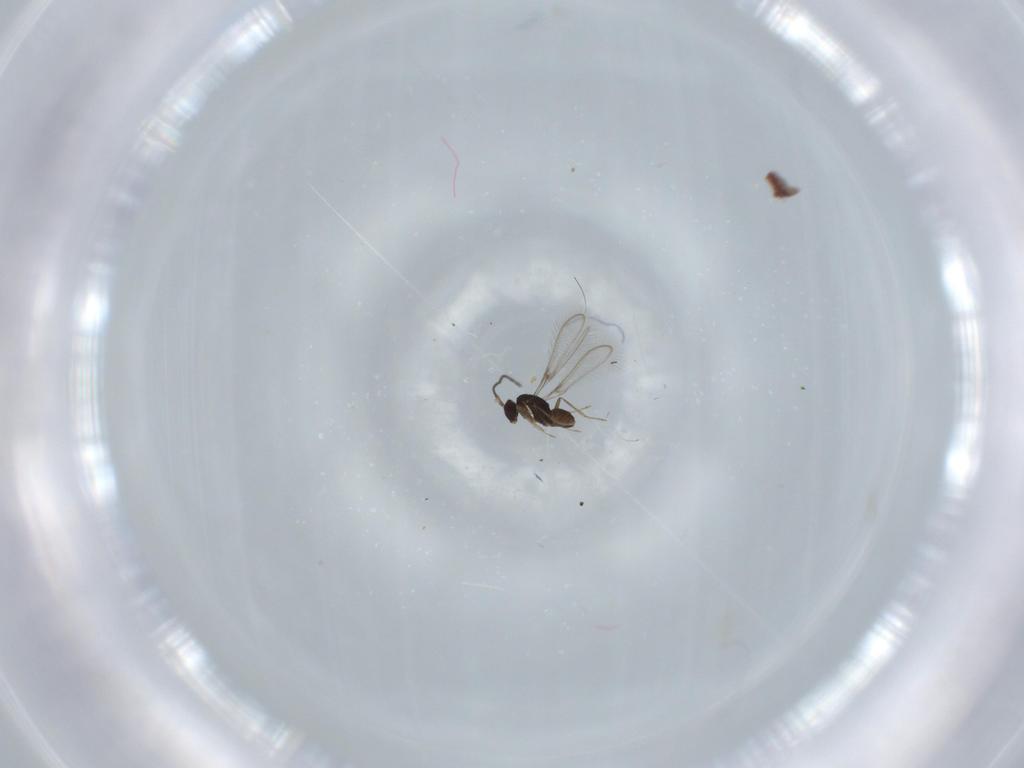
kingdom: Animalia
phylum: Arthropoda
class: Insecta
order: Diptera
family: Chironomidae
